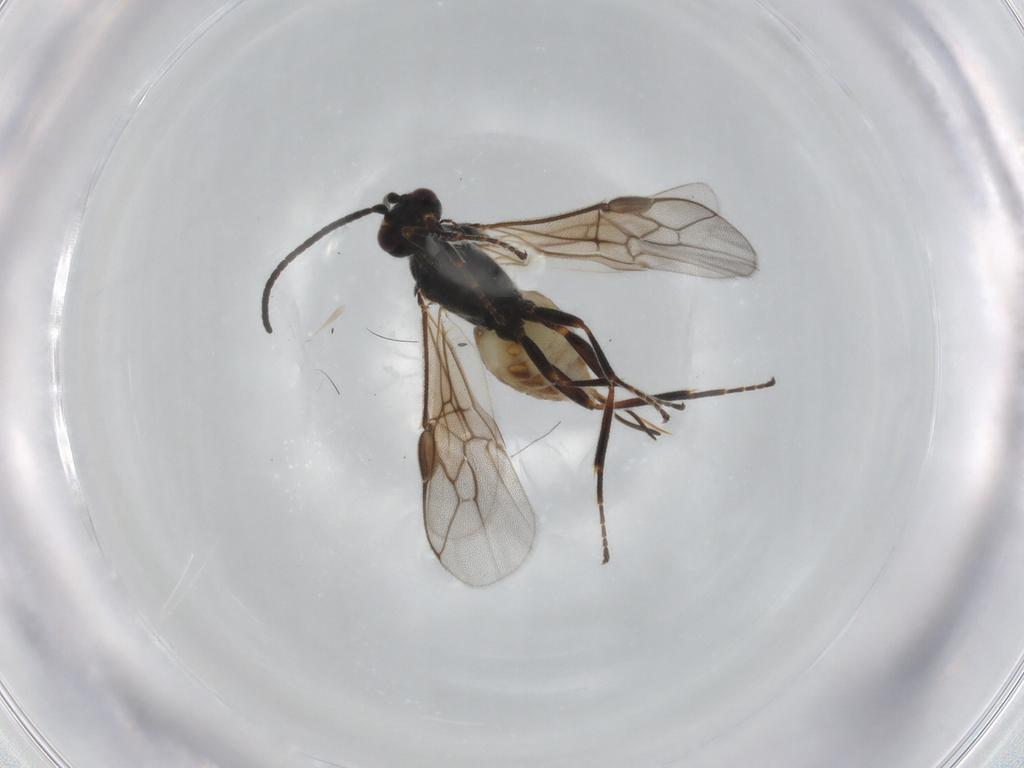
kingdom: Animalia
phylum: Arthropoda
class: Insecta
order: Hymenoptera
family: Braconidae
